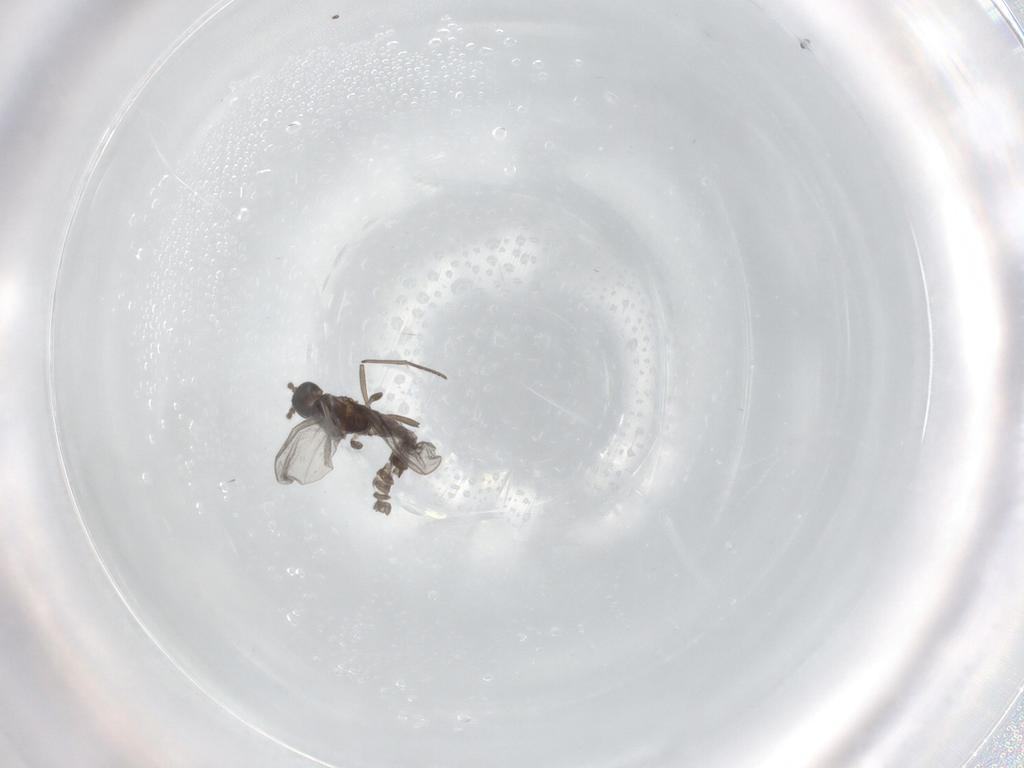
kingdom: Animalia
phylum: Arthropoda
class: Insecta
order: Diptera
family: Sciaridae
